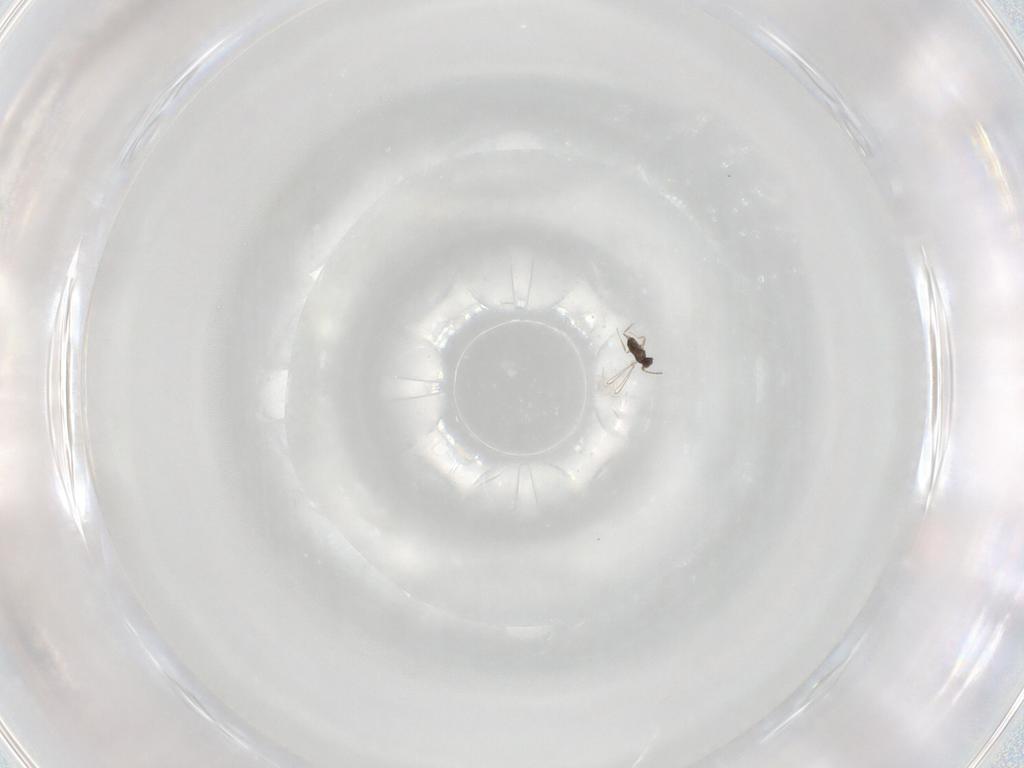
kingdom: Animalia
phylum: Arthropoda
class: Insecta
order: Hymenoptera
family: Mymaridae
